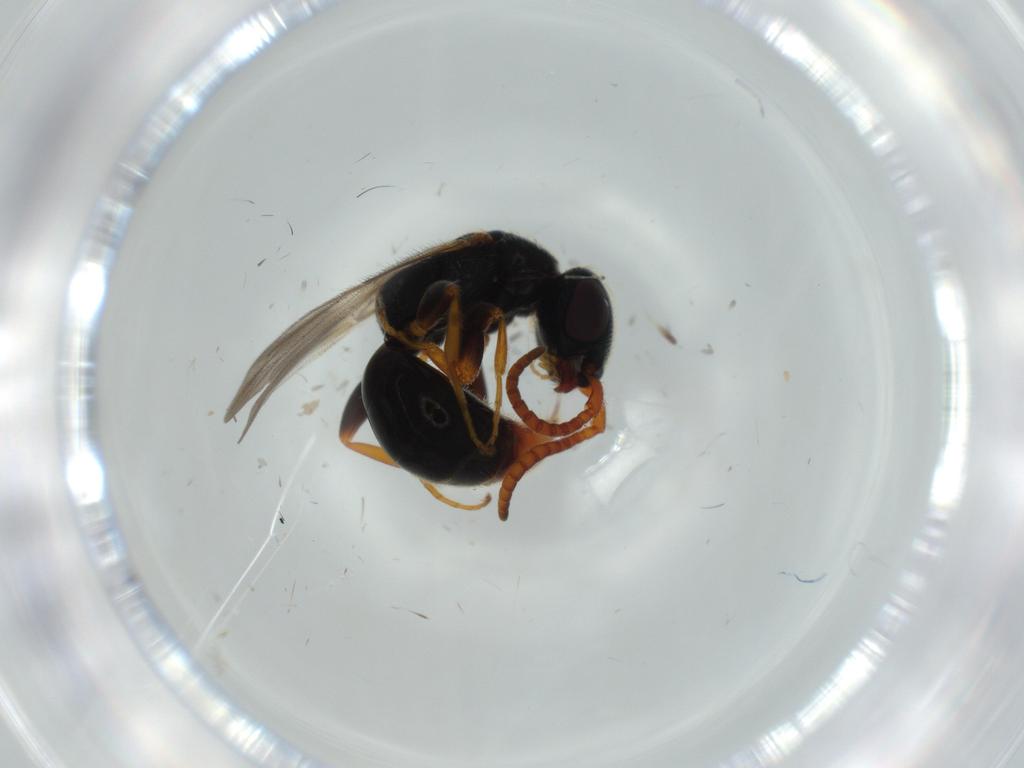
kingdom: Animalia
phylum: Arthropoda
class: Insecta
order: Hymenoptera
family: Bethylidae
